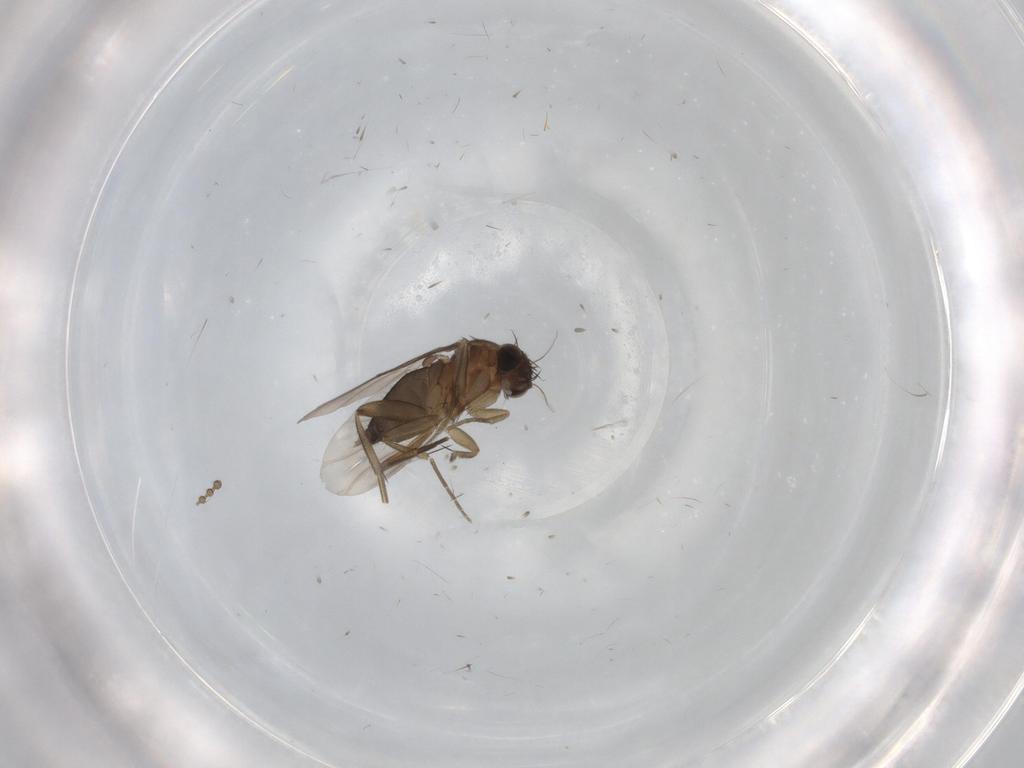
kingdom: Animalia
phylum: Arthropoda
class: Insecta
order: Diptera
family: Phoridae
